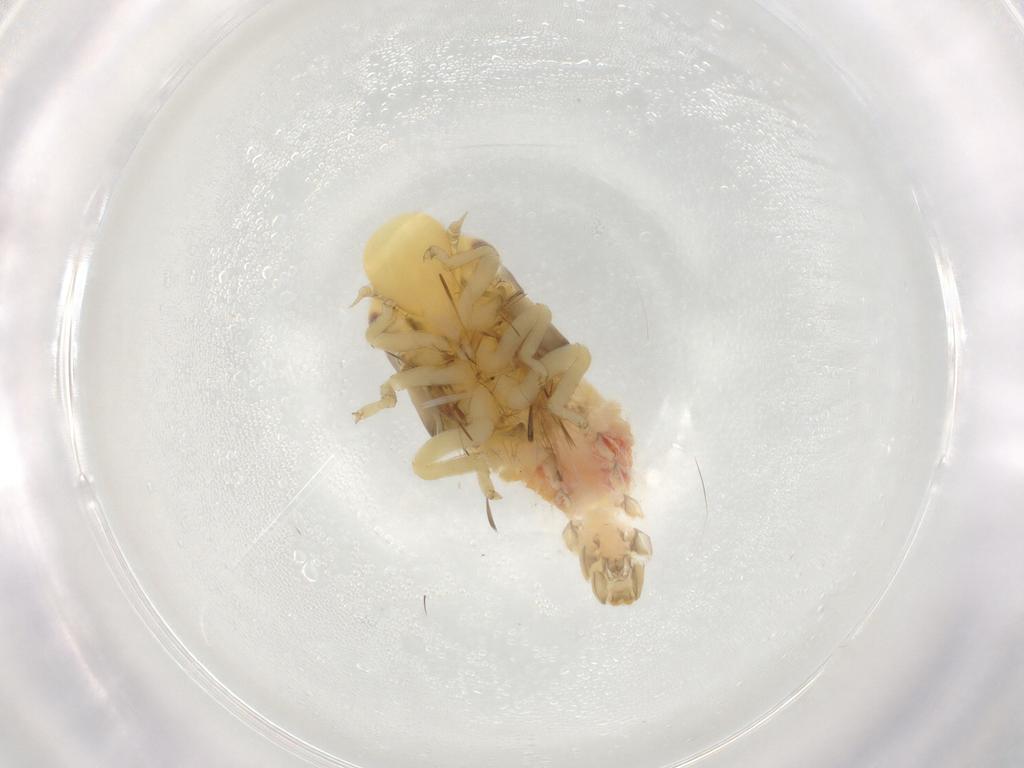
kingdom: Animalia
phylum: Arthropoda
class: Insecta
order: Hemiptera
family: Aphrophoridae
